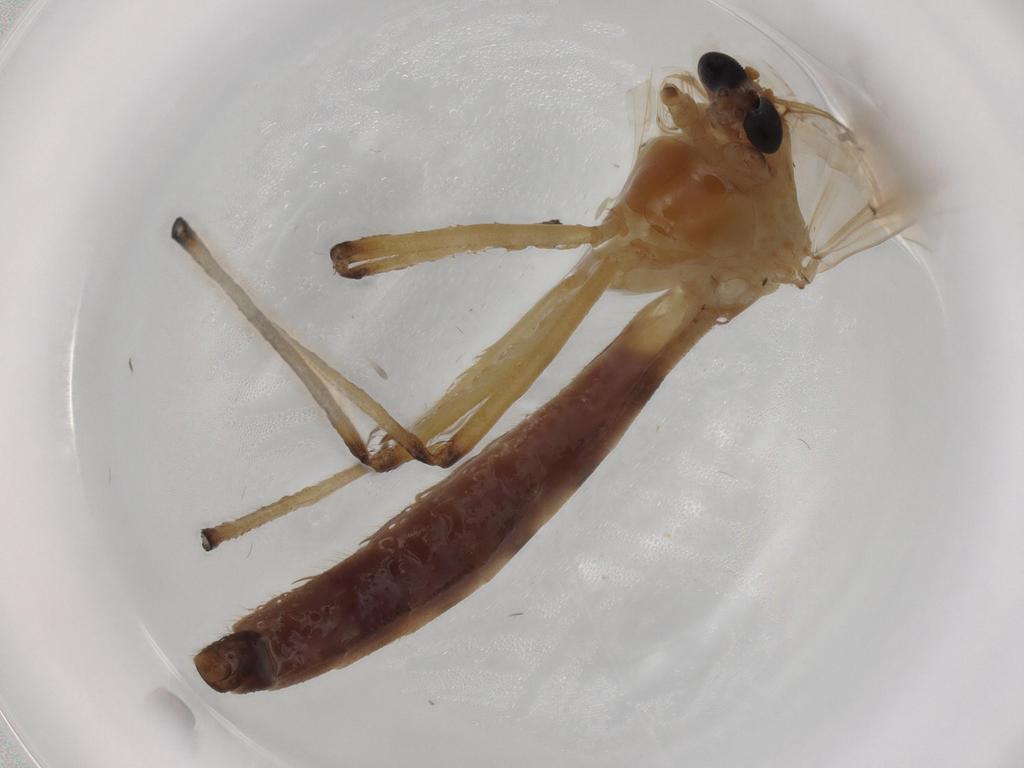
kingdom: Animalia
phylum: Arthropoda
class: Insecta
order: Diptera
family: Chironomidae
